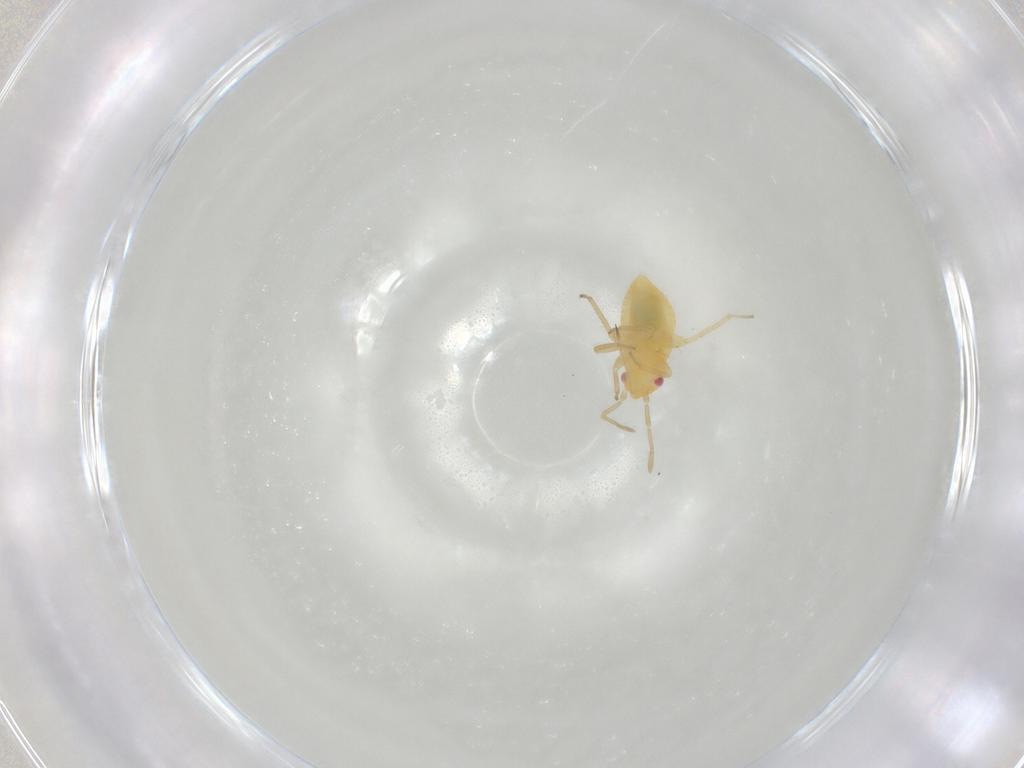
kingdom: Animalia
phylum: Arthropoda
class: Insecta
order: Hemiptera
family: Miridae
